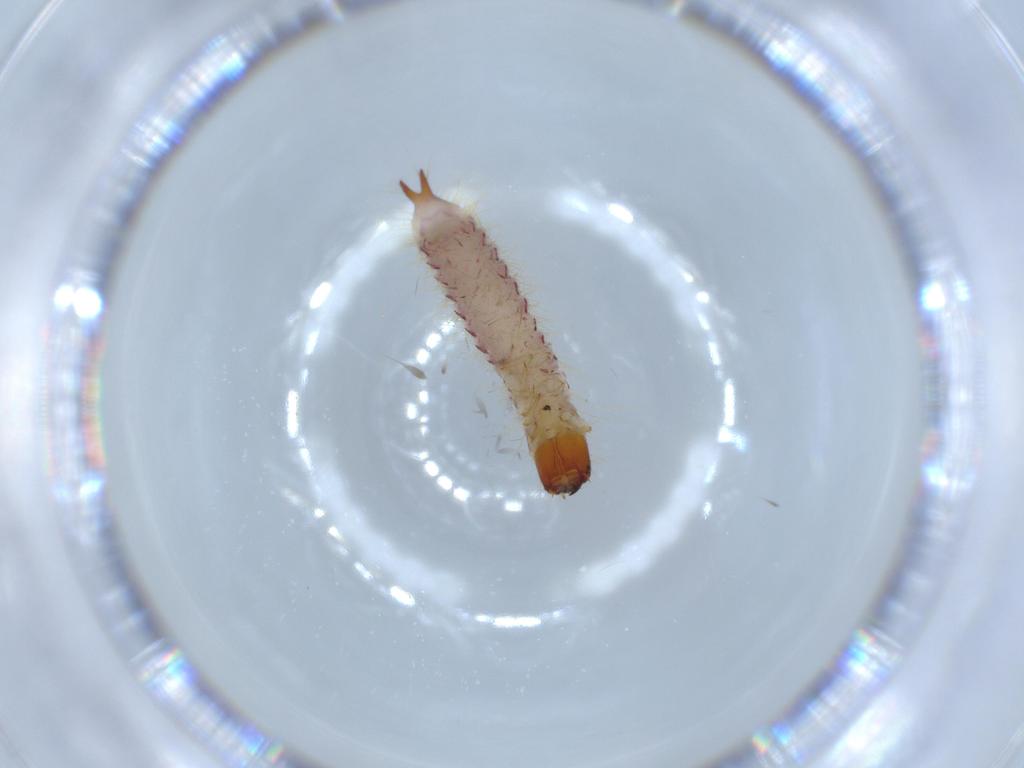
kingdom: Animalia
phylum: Arthropoda
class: Insecta
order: Coleoptera
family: Cleridae
